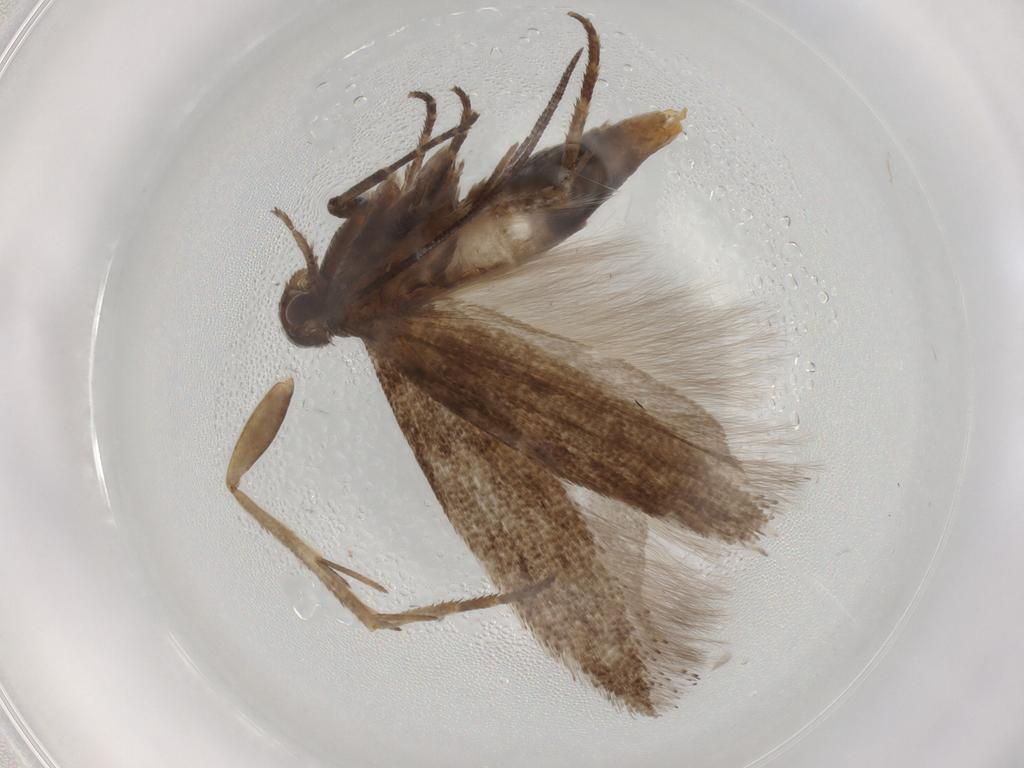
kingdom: Animalia
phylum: Arthropoda
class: Insecta
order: Lepidoptera
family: Gelechiidae
